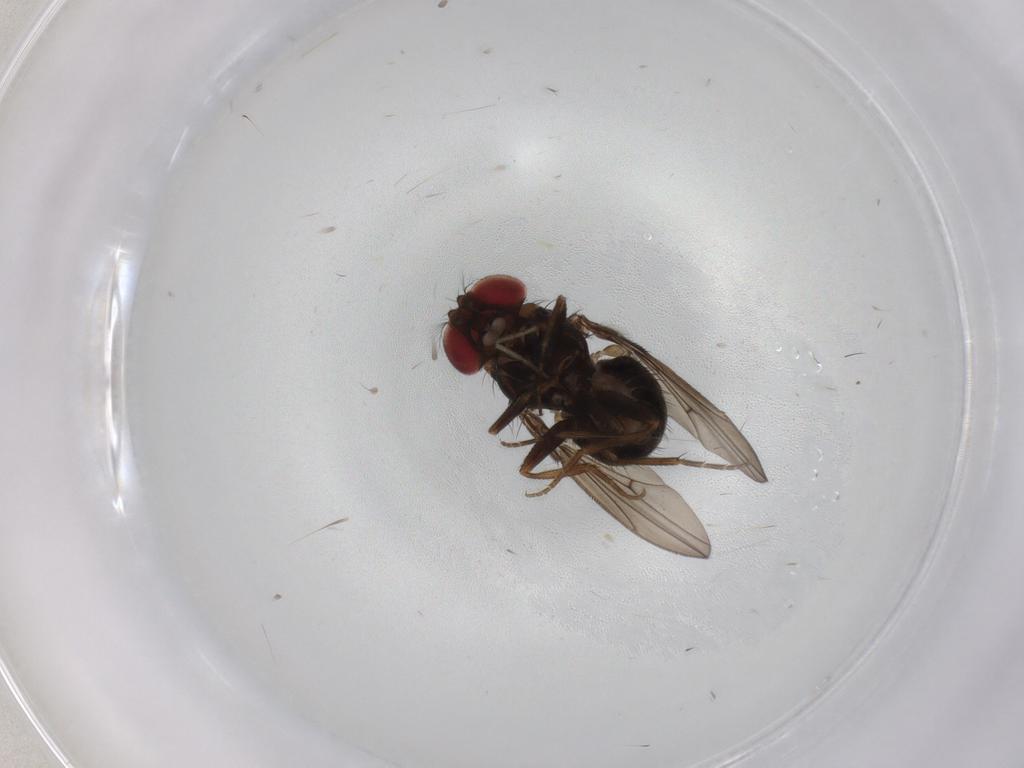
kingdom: Animalia
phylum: Arthropoda
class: Insecta
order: Diptera
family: Drosophilidae
